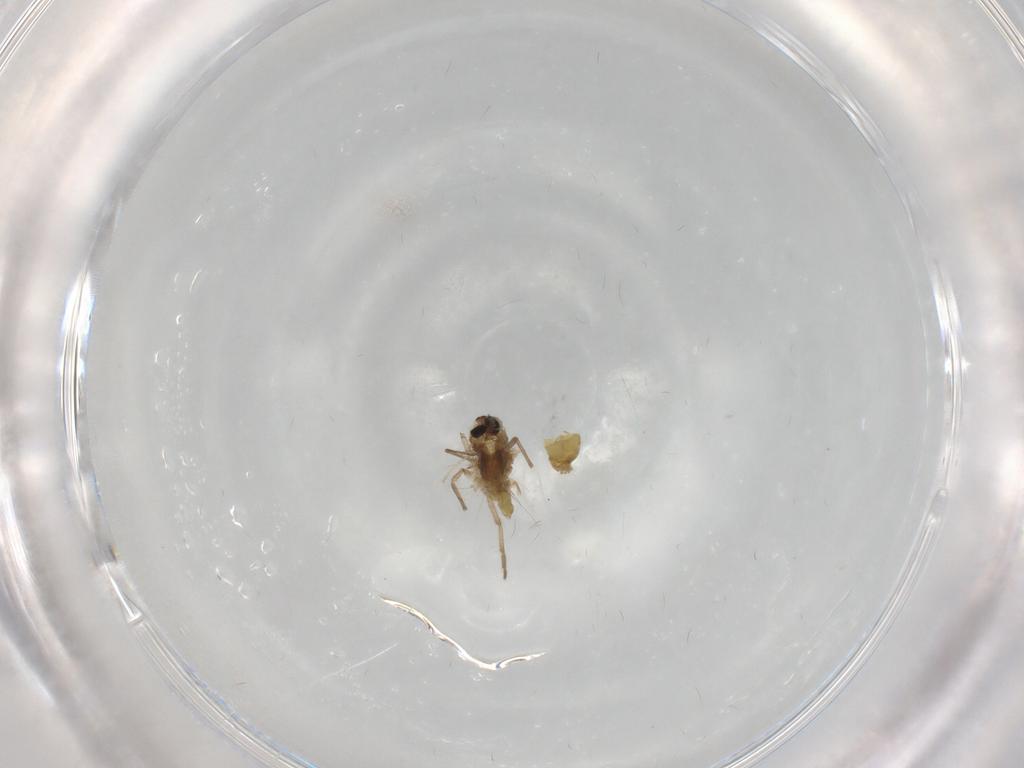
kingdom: Animalia
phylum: Arthropoda
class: Insecta
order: Diptera
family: Chironomidae
